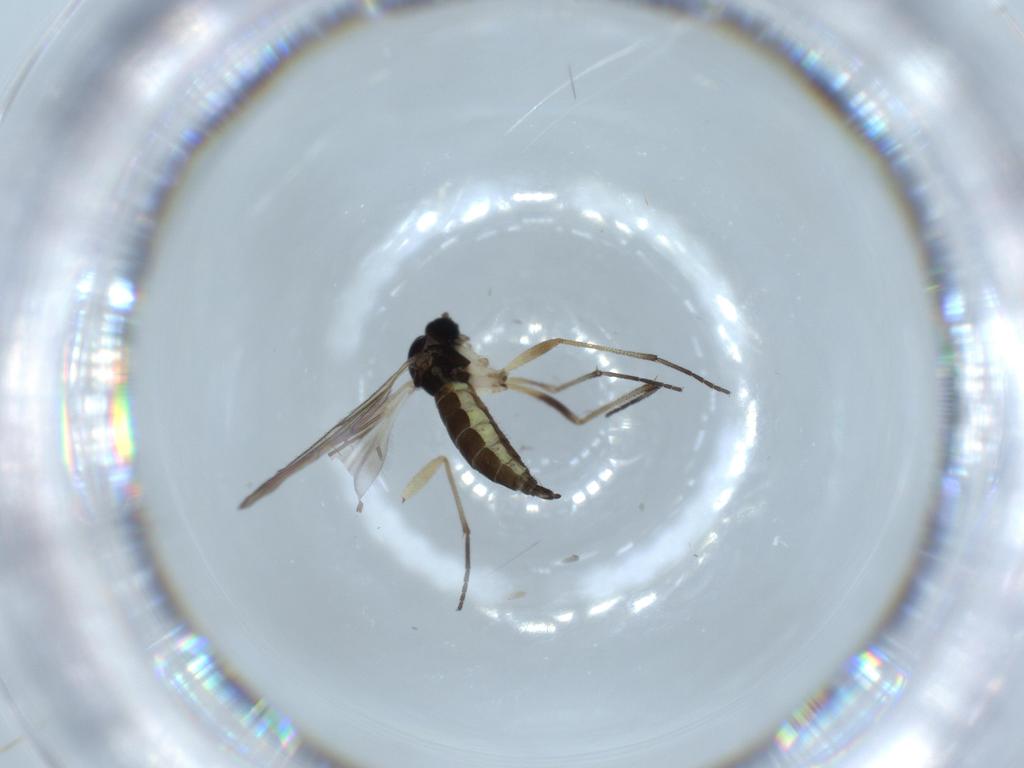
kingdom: Animalia
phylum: Arthropoda
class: Insecta
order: Diptera
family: Sciaridae
